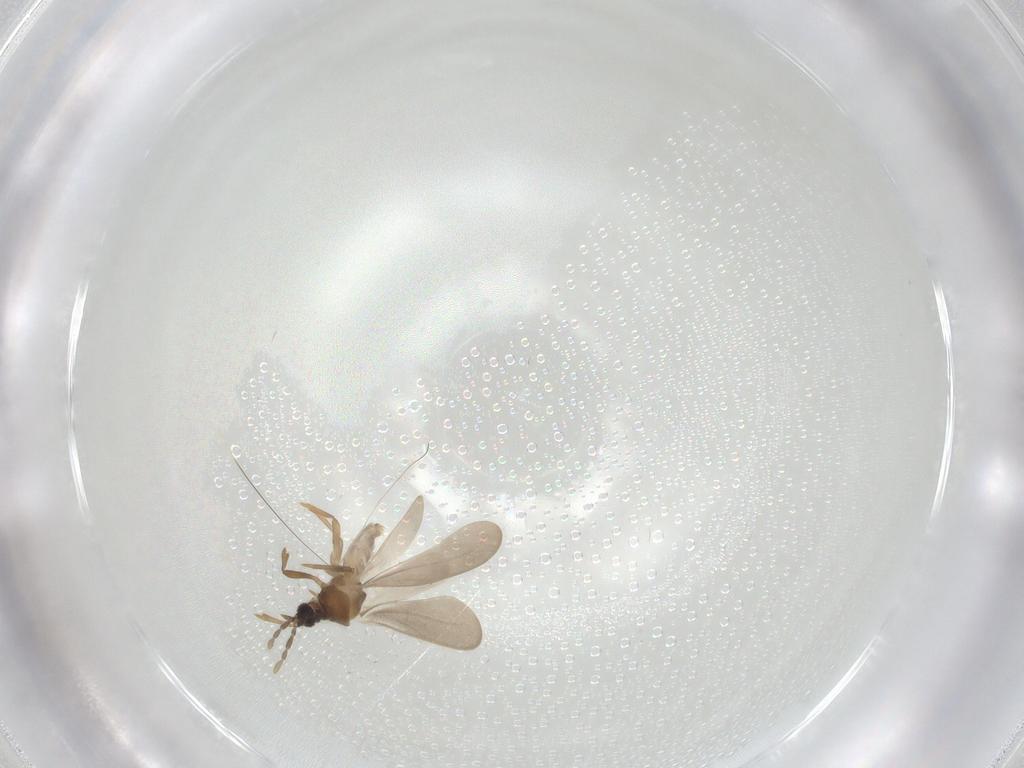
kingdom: Animalia
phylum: Arthropoda
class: Insecta
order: Hemiptera
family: Enicocephalidae
